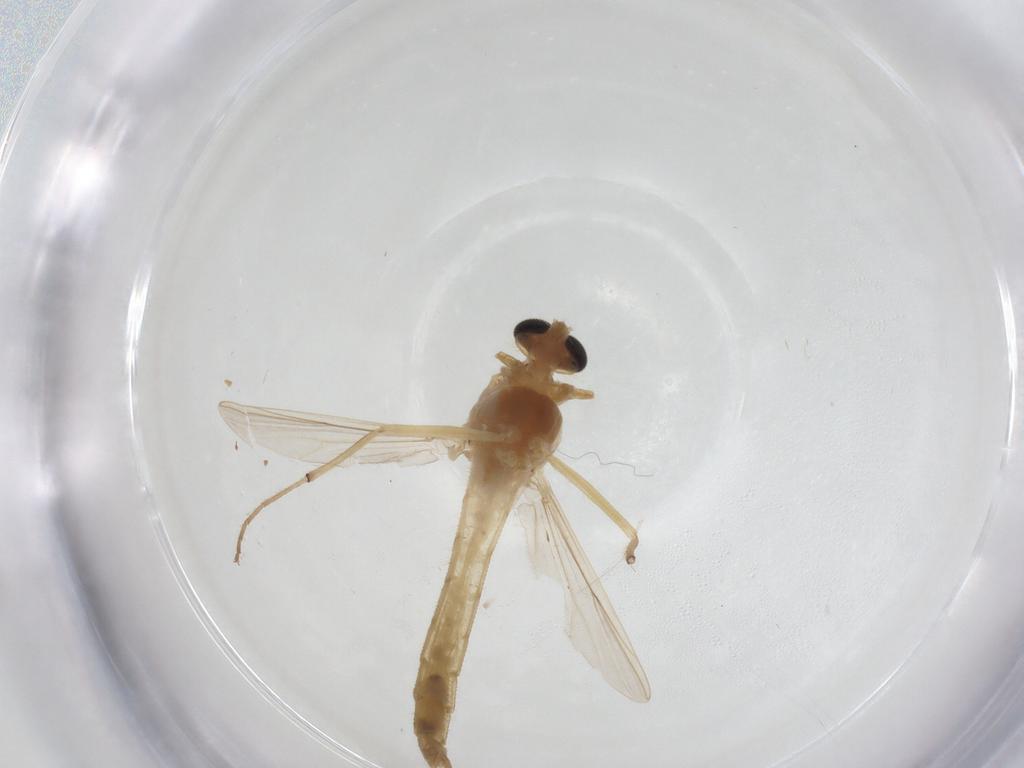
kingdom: Animalia
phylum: Arthropoda
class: Insecta
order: Diptera
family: Chironomidae
